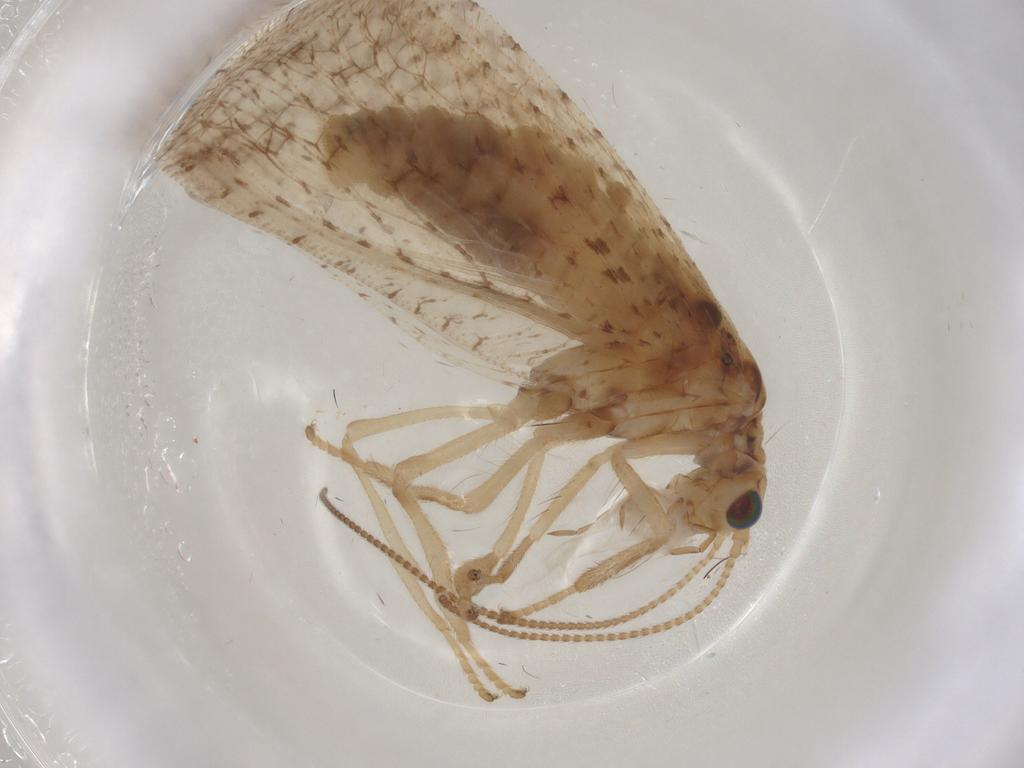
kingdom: Animalia
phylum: Arthropoda
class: Insecta
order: Neuroptera
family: Hemerobiidae
